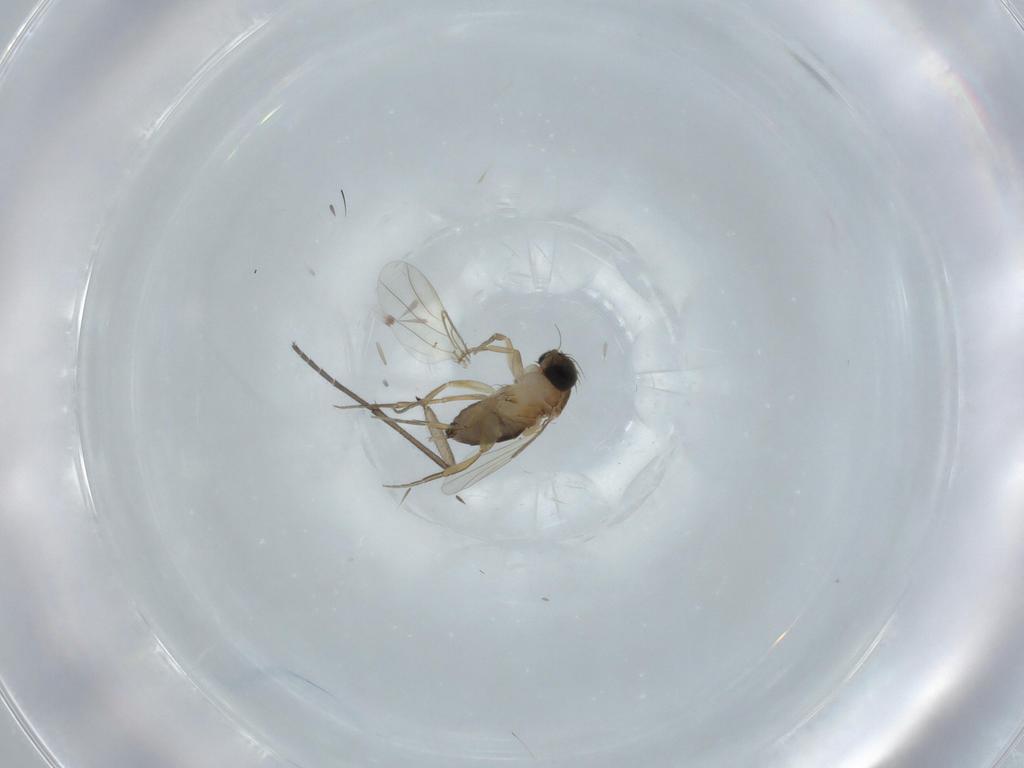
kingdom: Animalia
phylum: Arthropoda
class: Insecta
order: Diptera
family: Phoridae
